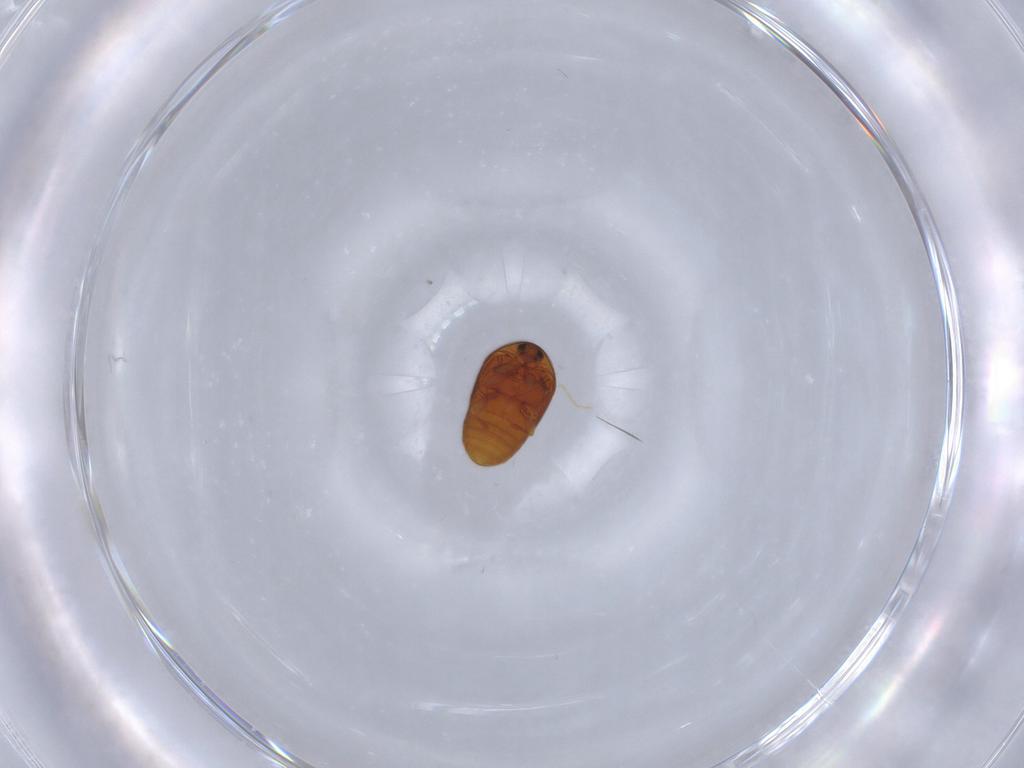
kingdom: Animalia
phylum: Arthropoda
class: Insecta
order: Coleoptera
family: Corylophidae
